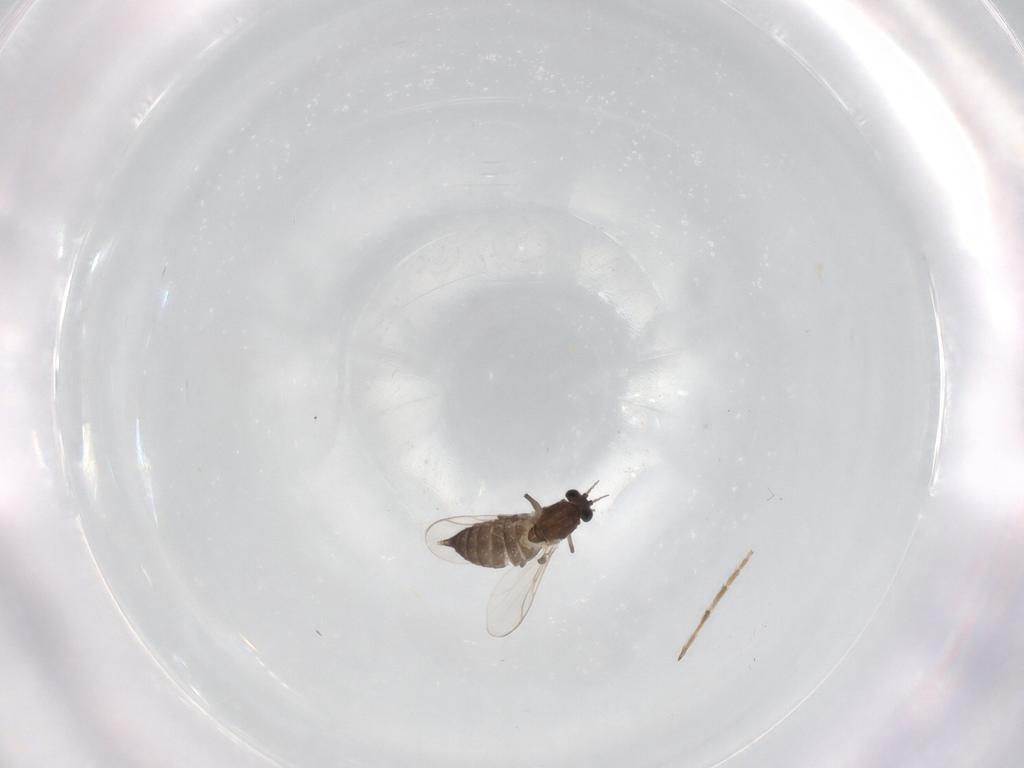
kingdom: Animalia
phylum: Arthropoda
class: Insecta
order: Diptera
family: Chironomidae
